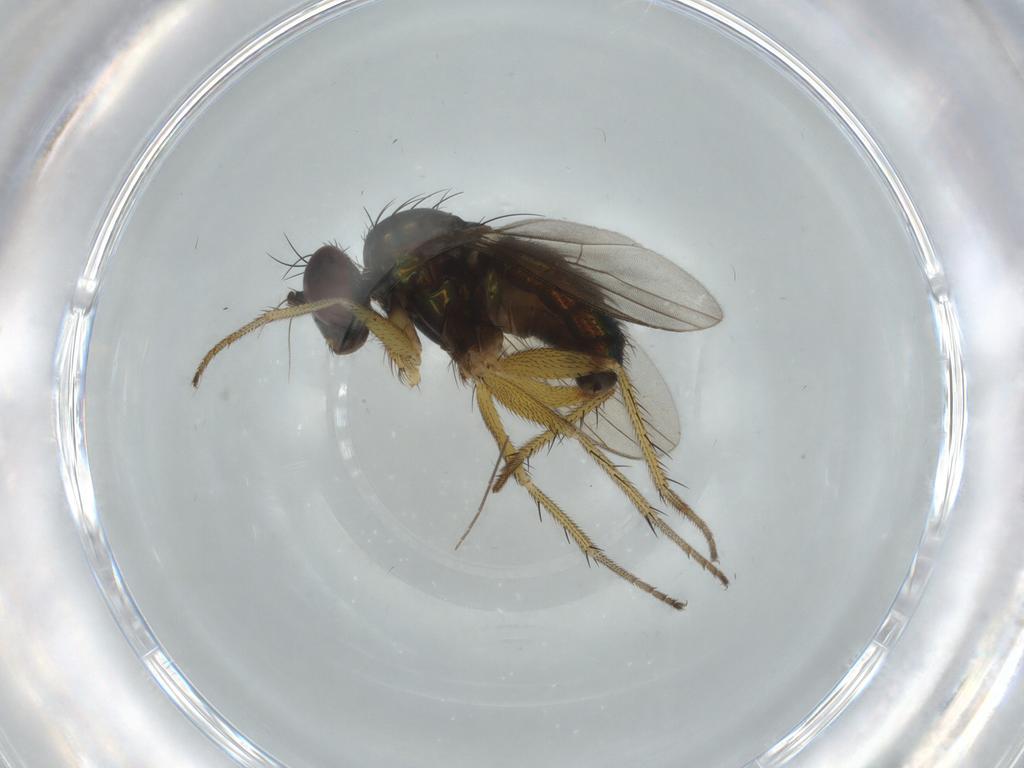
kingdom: Animalia
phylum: Arthropoda
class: Insecta
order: Diptera
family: Dolichopodidae
